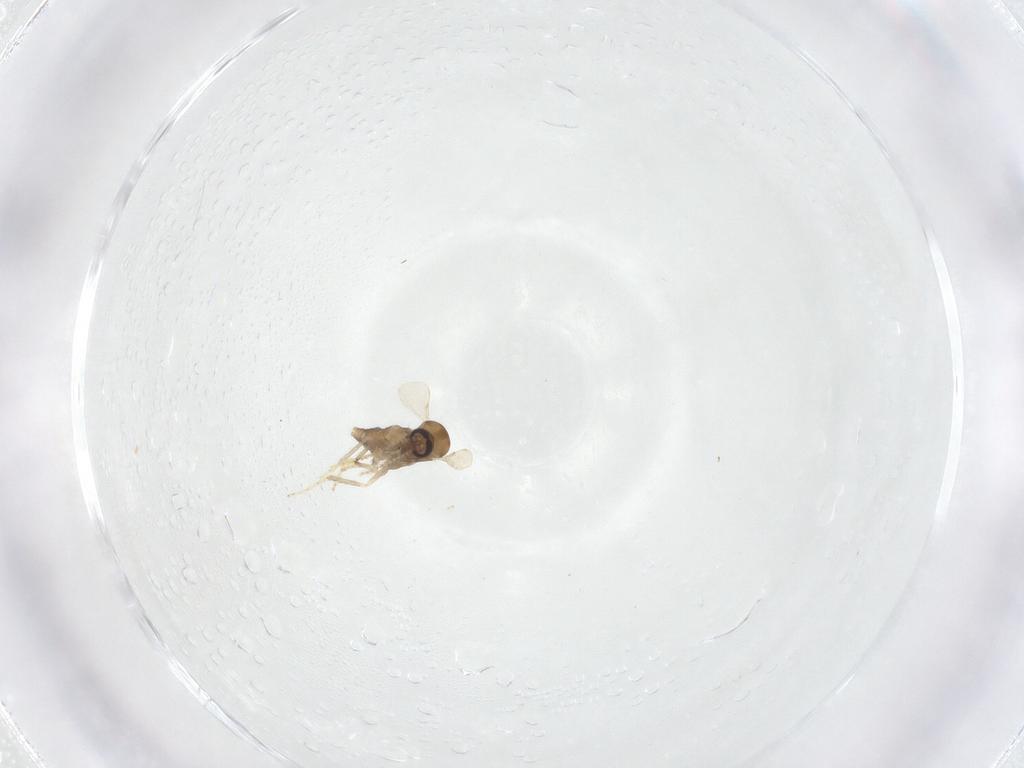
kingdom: Animalia
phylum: Arthropoda
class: Insecta
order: Diptera
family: Ceratopogonidae
